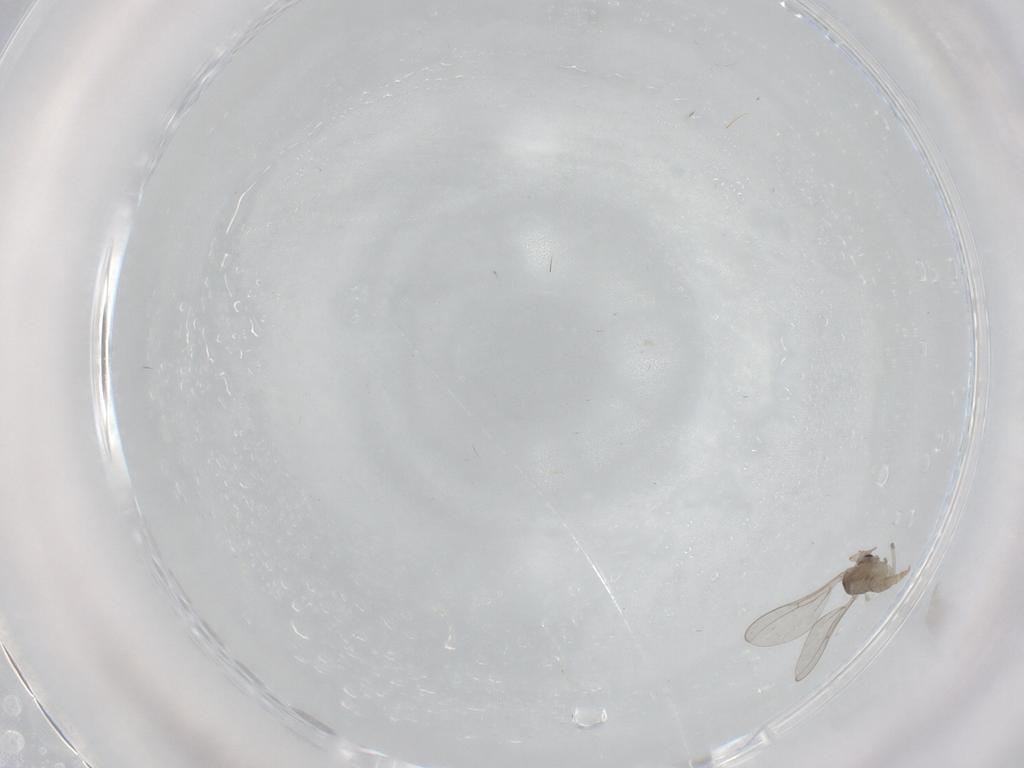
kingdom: Animalia
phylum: Arthropoda
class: Insecta
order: Diptera
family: Cecidomyiidae
